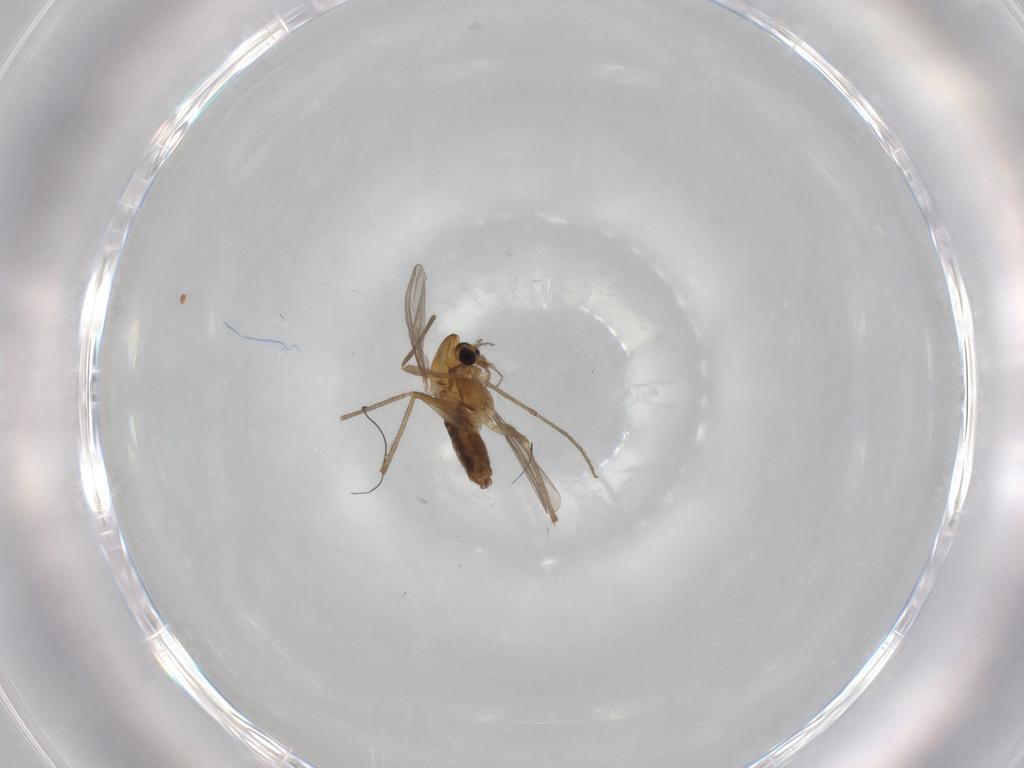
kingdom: Animalia
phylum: Arthropoda
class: Insecta
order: Diptera
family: Chironomidae
